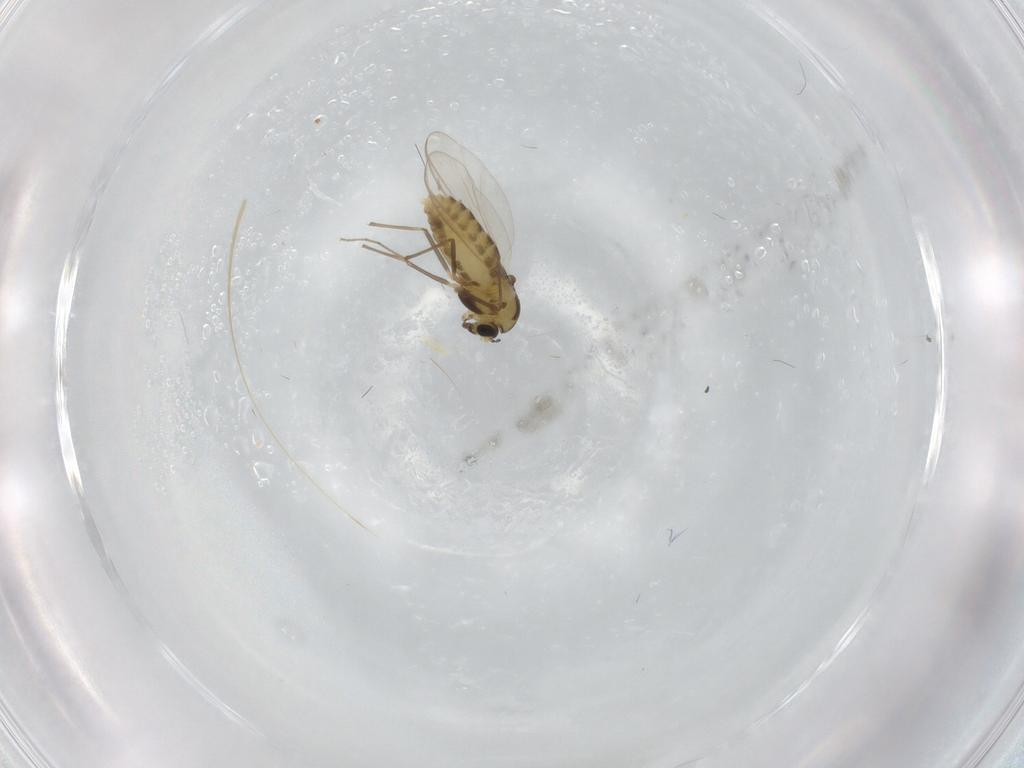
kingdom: Animalia
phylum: Arthropoda
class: Insecta
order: Diptera
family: Chironomidae
